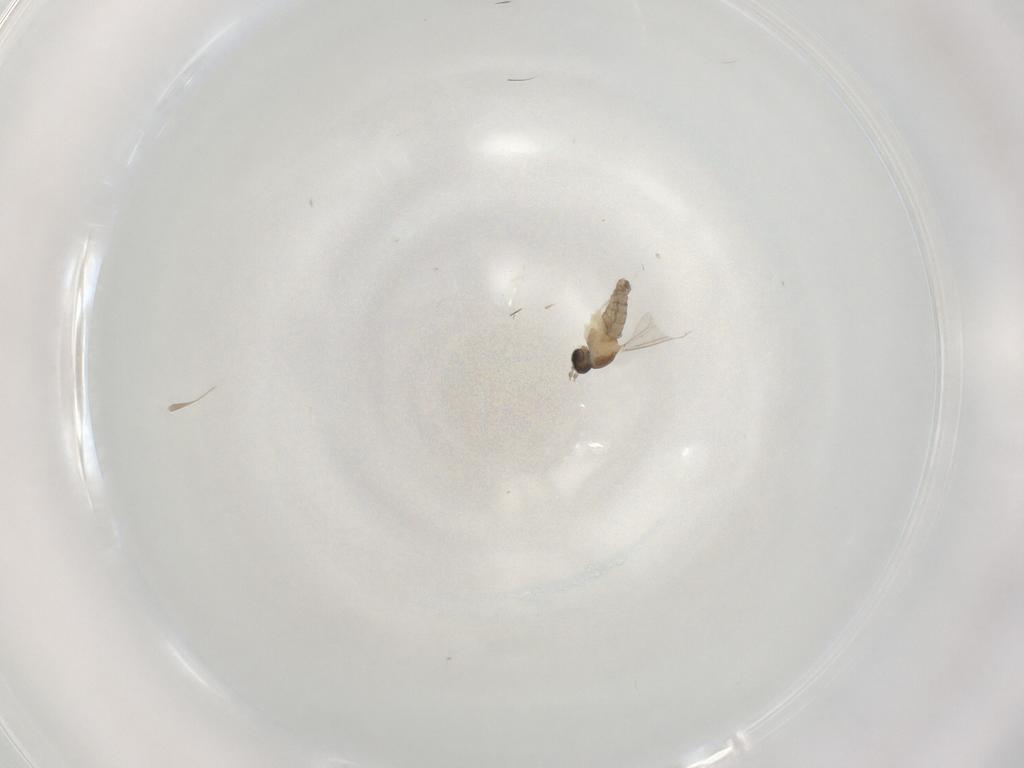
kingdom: Animalia
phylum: Arthropoda
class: Insecta
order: Diptera
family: Cecidomyiidae
